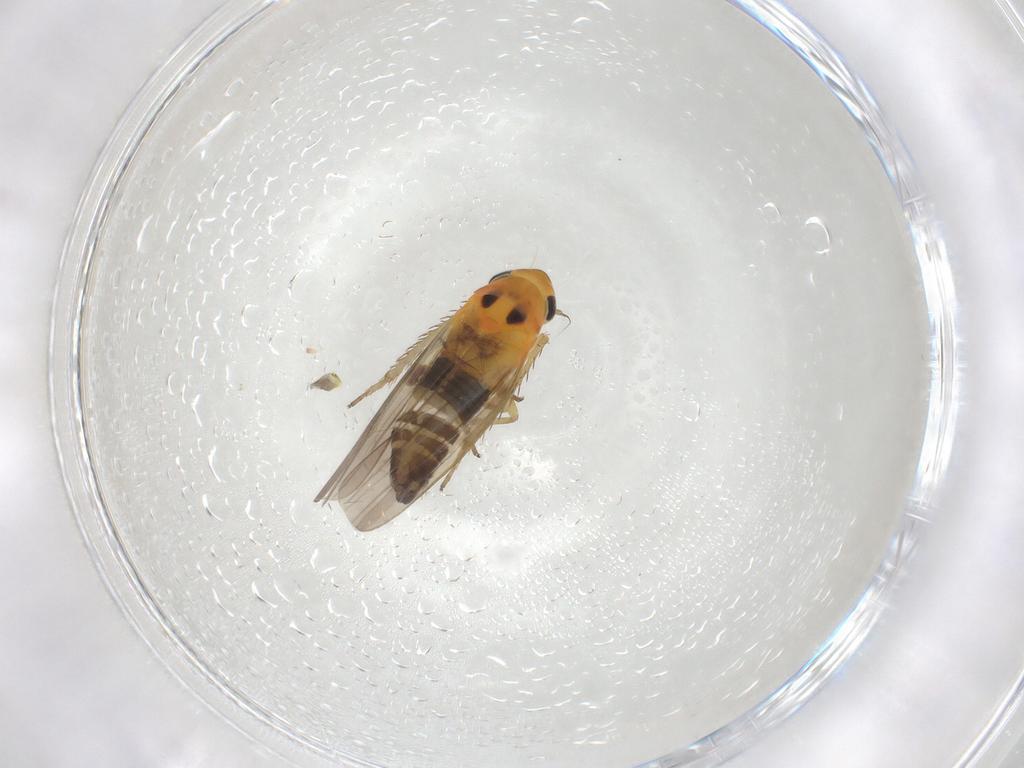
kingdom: Animalia
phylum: Arthropoda
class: Insecta
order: Hemiptera
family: Cicadellidae
